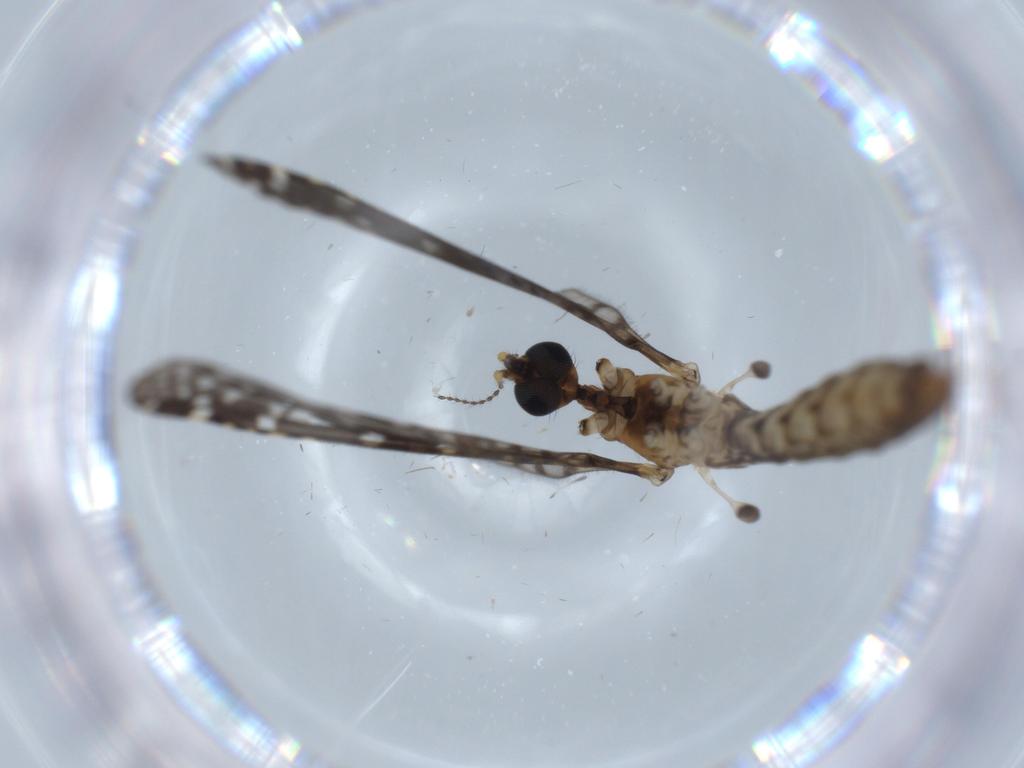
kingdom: Animalia
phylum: Arthropoda
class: Insecta
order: Diptera
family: Limoniidae
